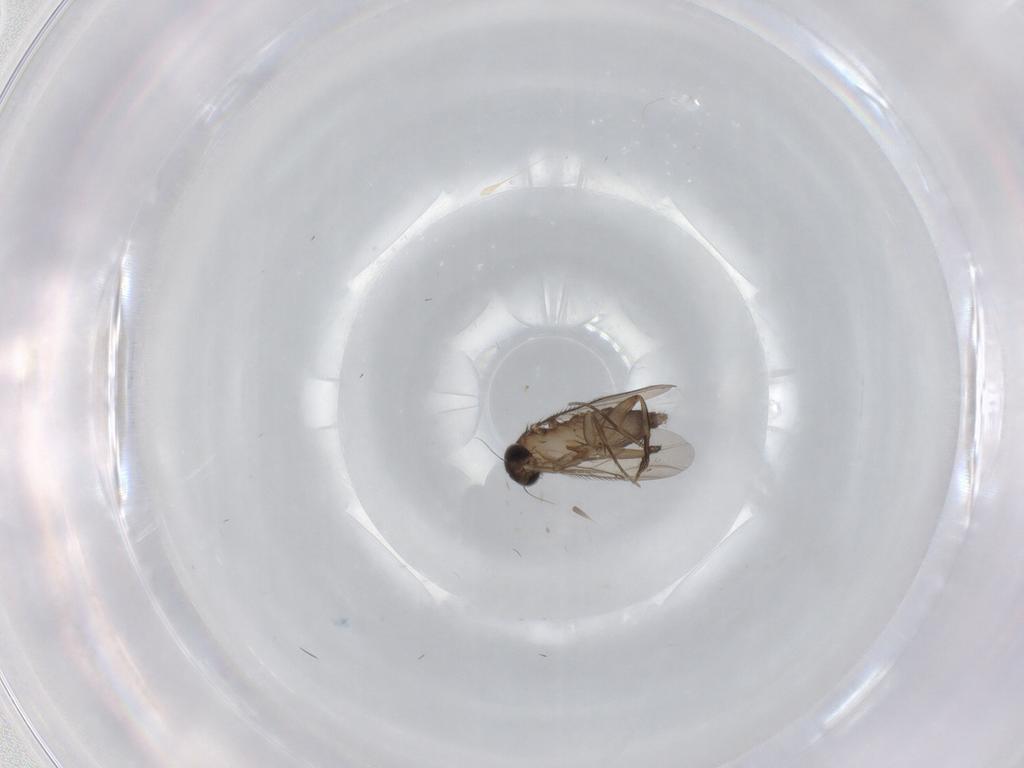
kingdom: Animalia
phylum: Arthropoda
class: Insecta
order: Diptera
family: Phoridae
